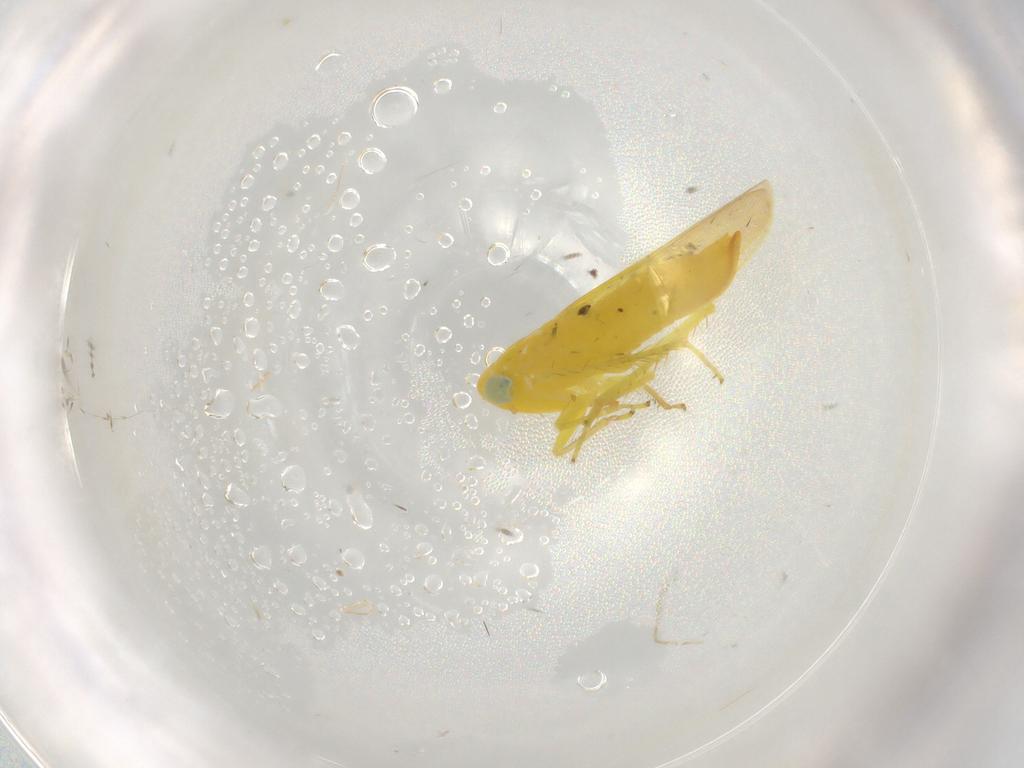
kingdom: Animalia
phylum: Arthropoda
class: Insecta
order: Hemiptera
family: Cicadellidae
